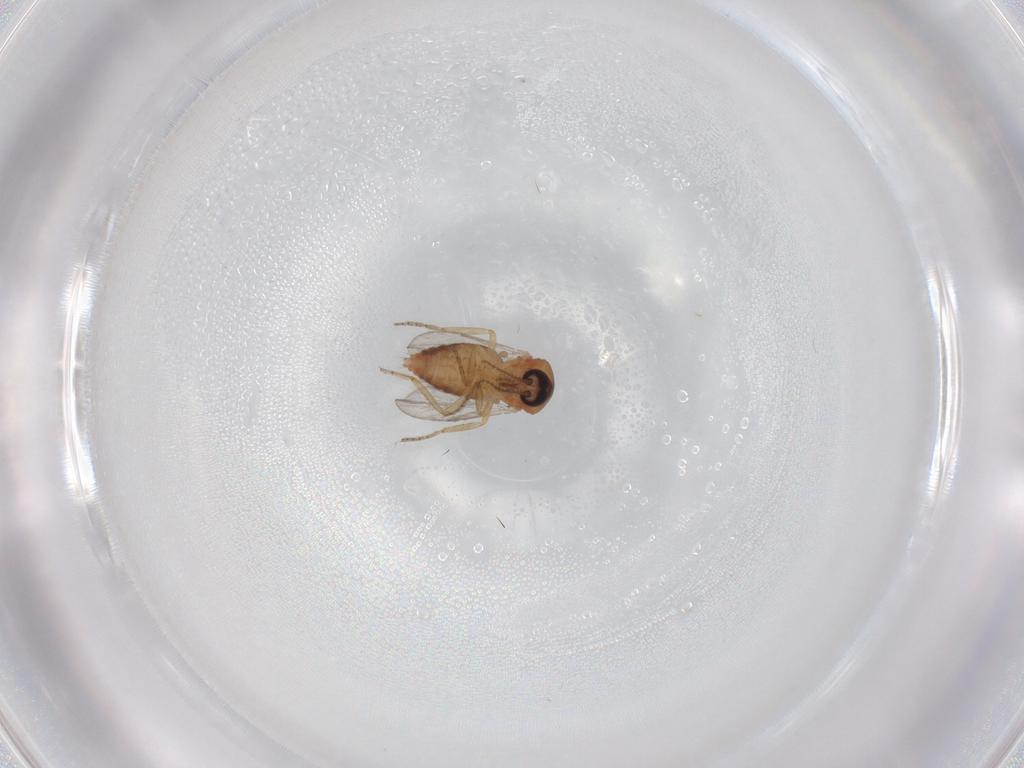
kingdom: Animalia
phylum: Arthropoda
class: Insecta
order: Diptera
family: Ceratopogonidae
